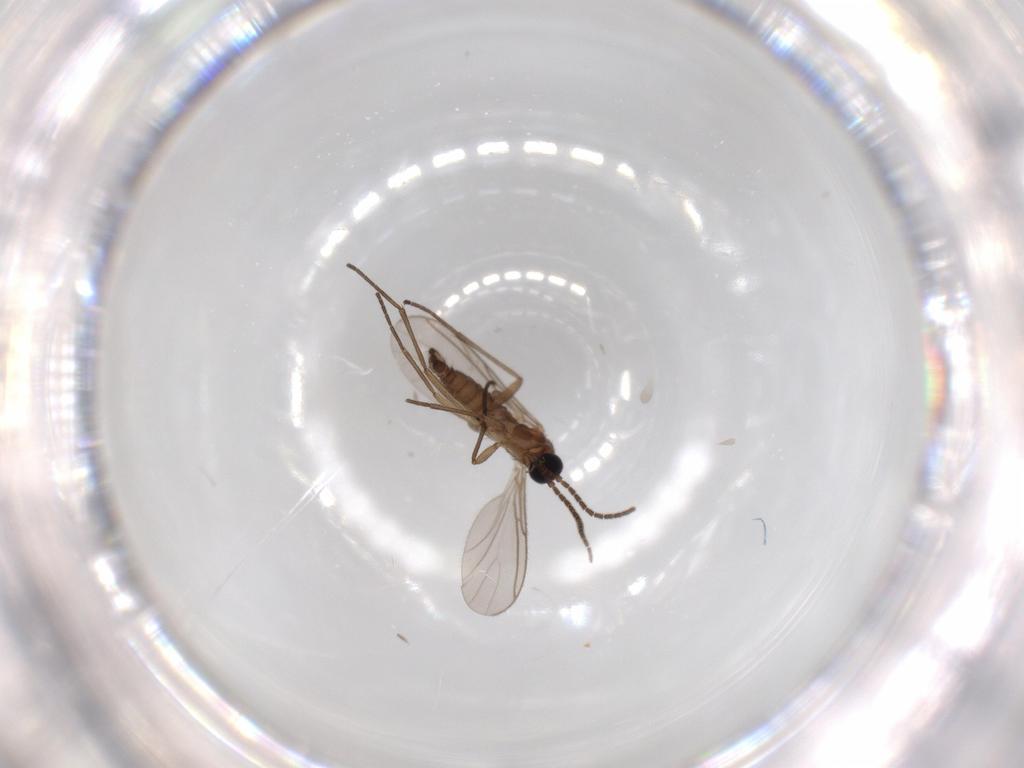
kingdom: Animalia
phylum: Arthropoda
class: Insecta
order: Diptera
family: Sciaridae
